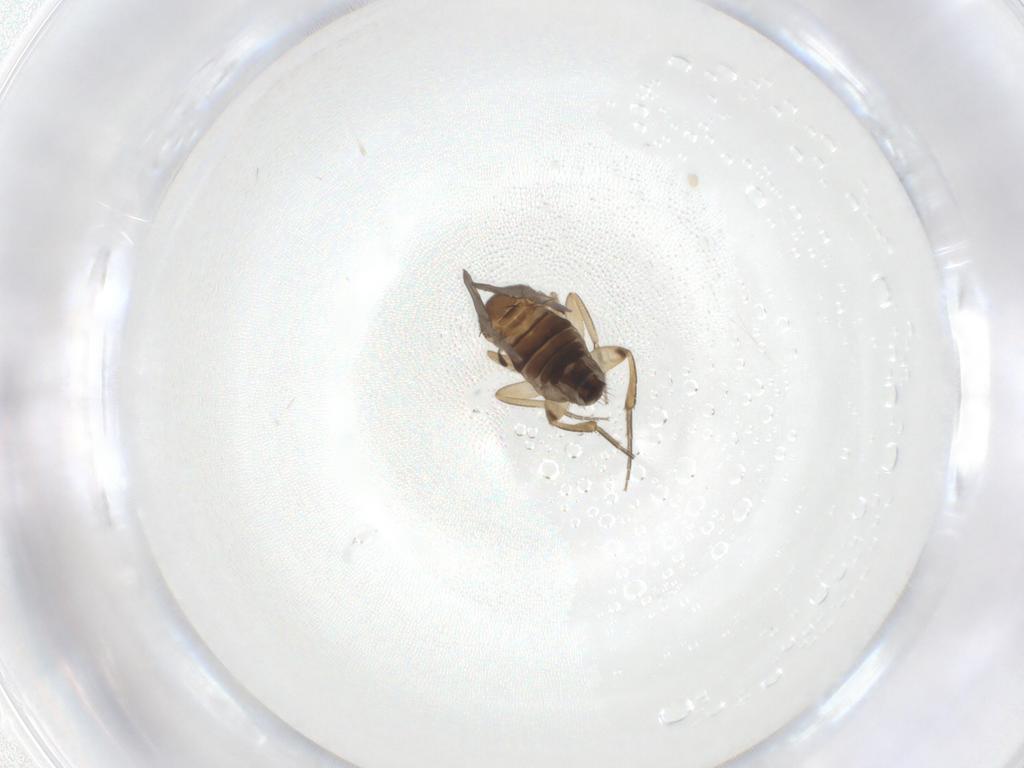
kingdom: Animalia
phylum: Arthropoda
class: Insecta
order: Diptera
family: Phoridae
